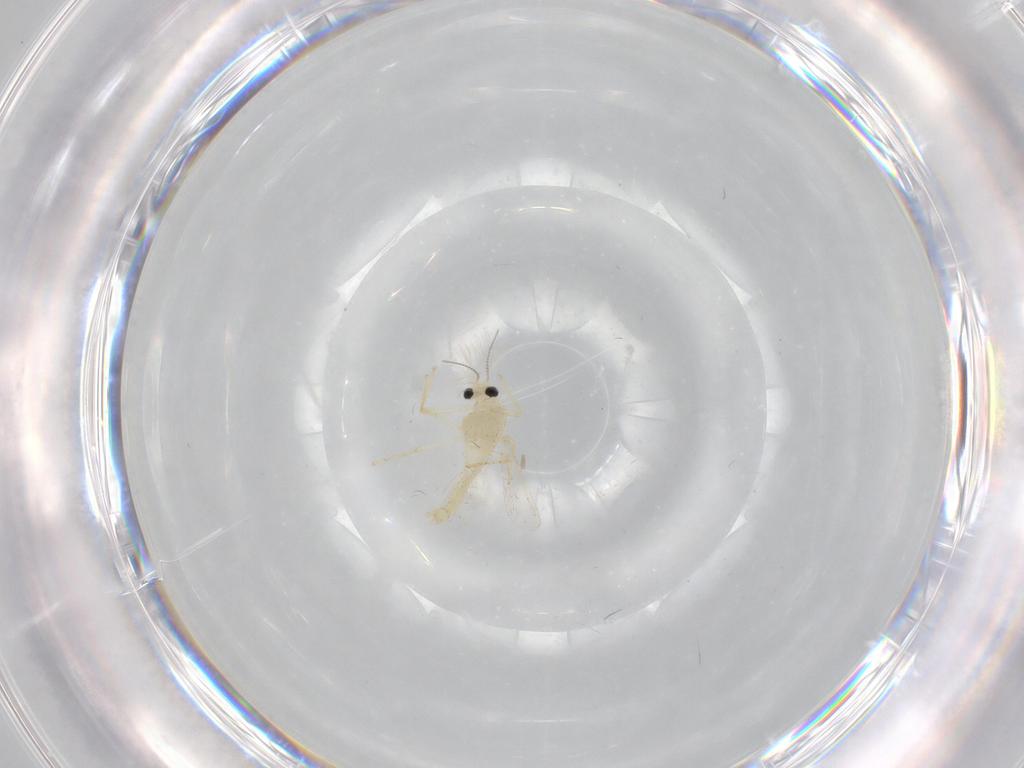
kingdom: Animalia
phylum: Arthropoda
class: Insecta
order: Diptera
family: Chironomidae
